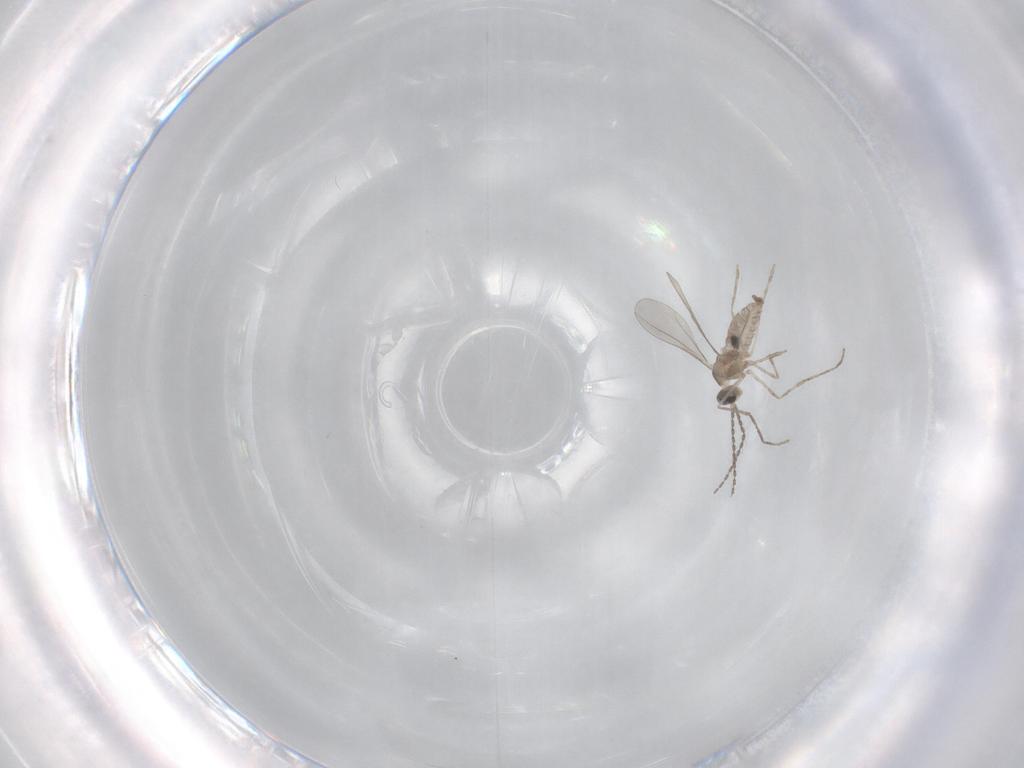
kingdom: Animalia
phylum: Arthropoda
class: Insecta
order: Diptera
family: Ceratopogonidae
